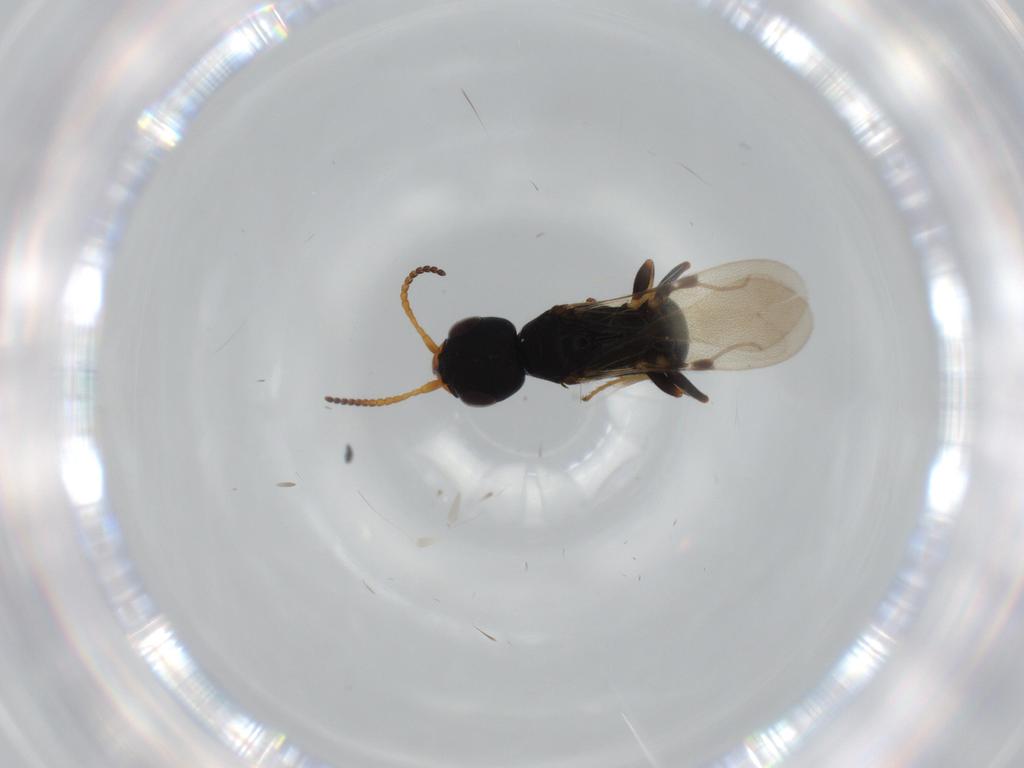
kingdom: Animalia
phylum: Arthropoda
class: Insecta
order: Hymenoptera
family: Bethylidae
